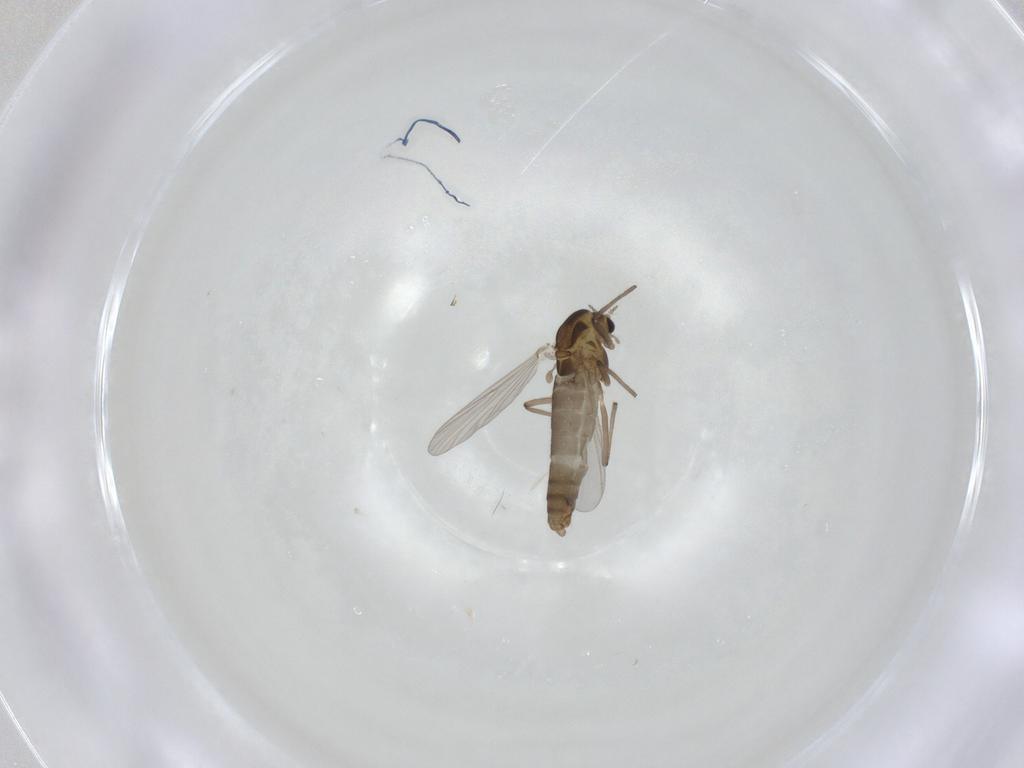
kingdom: Animalia
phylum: Arthropoda
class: Insecta
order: Diptera
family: Chironomidae
